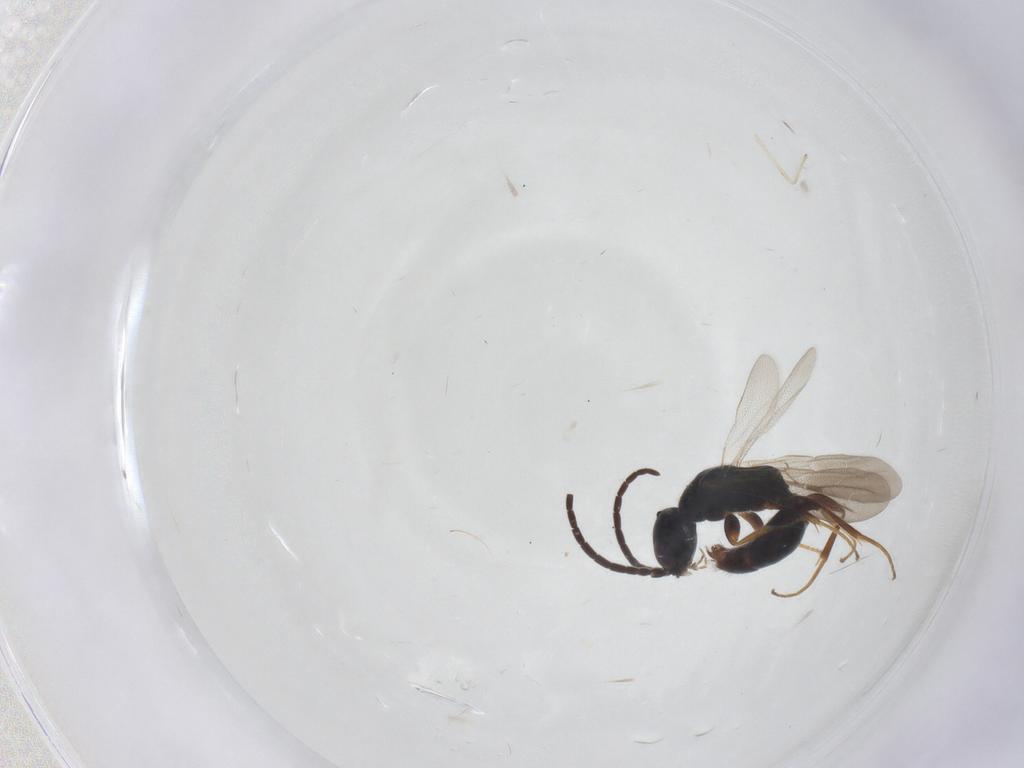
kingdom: Animalia
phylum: Arthropoda
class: Insecta
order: Hymenoptera
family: Bethylidae
